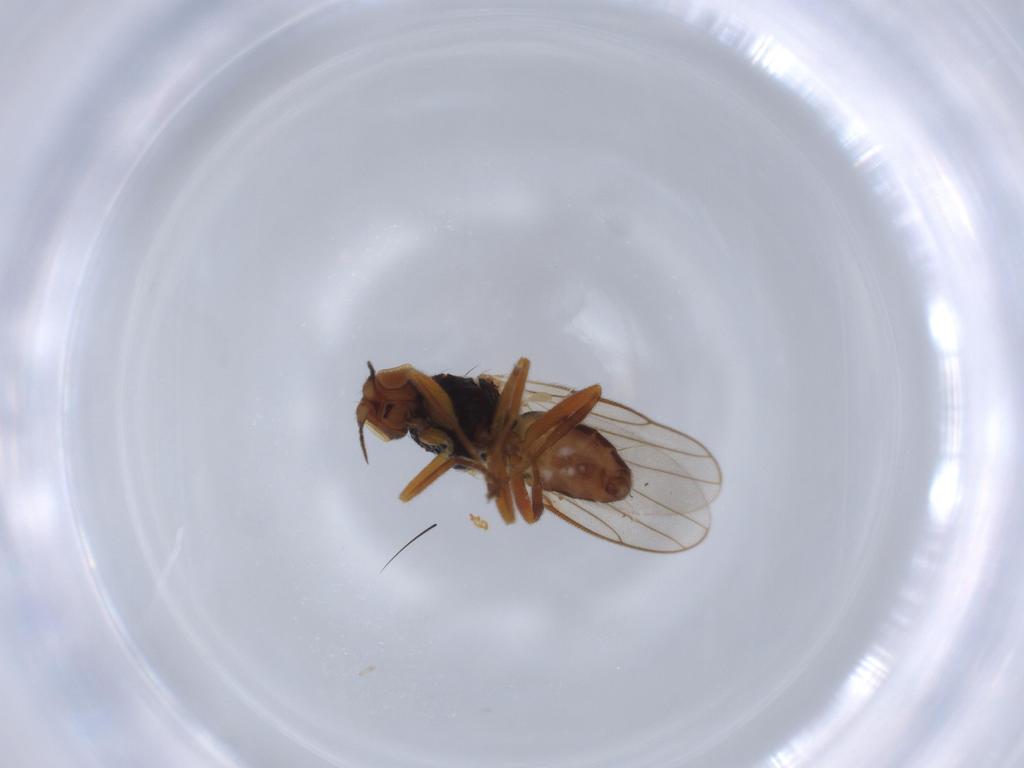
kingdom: Animalia
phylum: Arthropoda
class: Insecta
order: Diptera
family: Chloropidae
